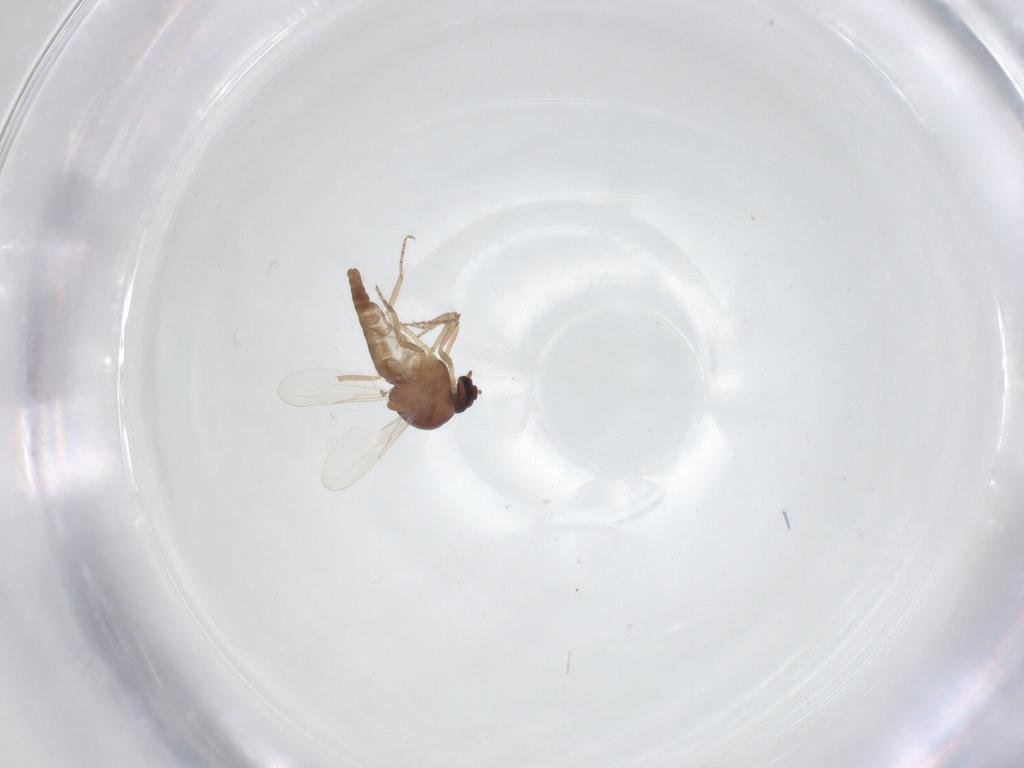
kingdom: Animalia
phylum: Arthropoda
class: Insecta
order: Diptera
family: Ceratopogonidae
